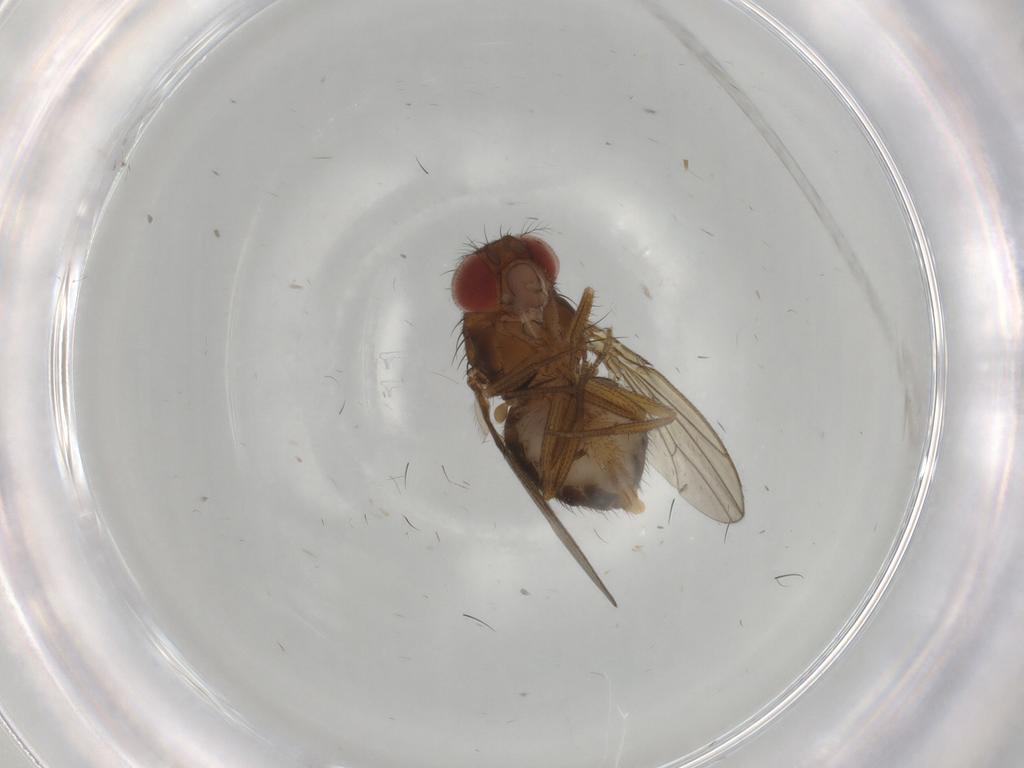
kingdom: Animalia
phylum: Arthropoda
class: Insecta
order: Diptera
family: Drosophilidae
